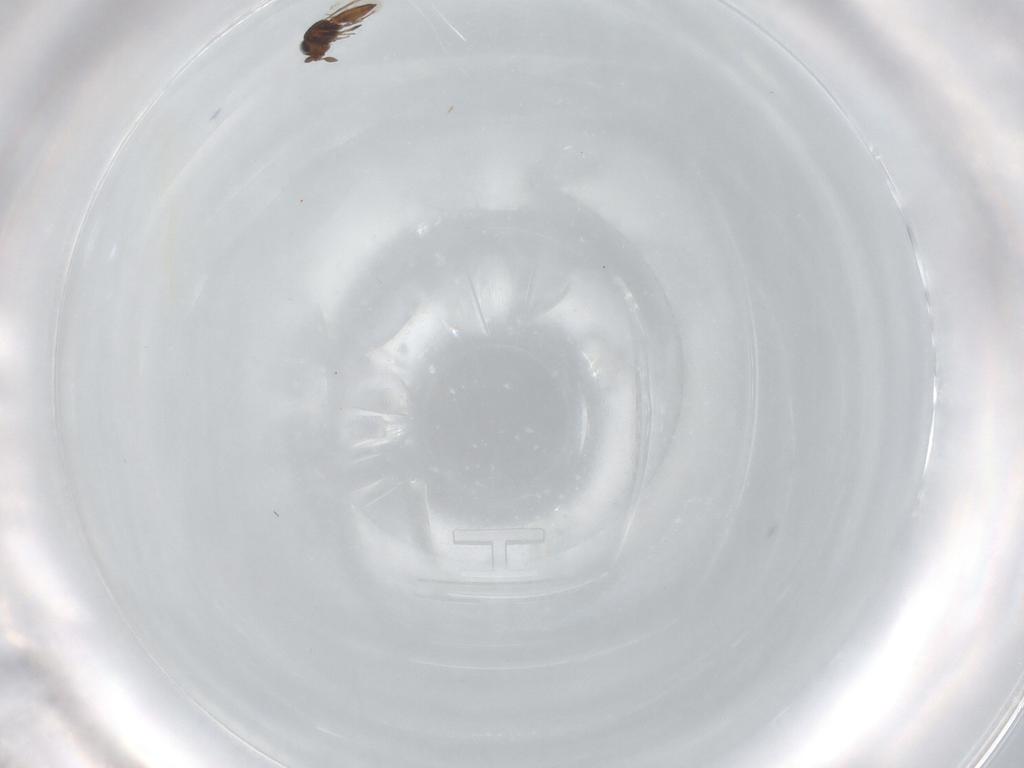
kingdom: Animalia
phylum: Arthropoda
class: Insecta
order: Hymenoptera
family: Scelionidae
